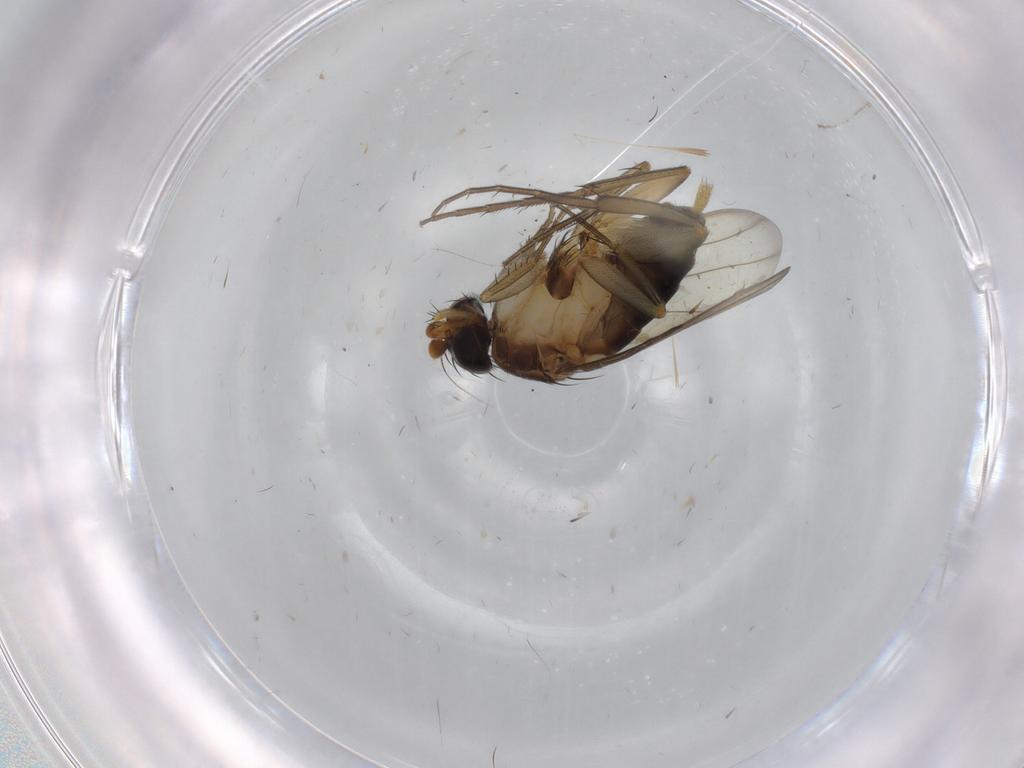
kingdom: Animalia
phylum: Arthropoda
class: Insecta
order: Diptera
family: Phoridae
